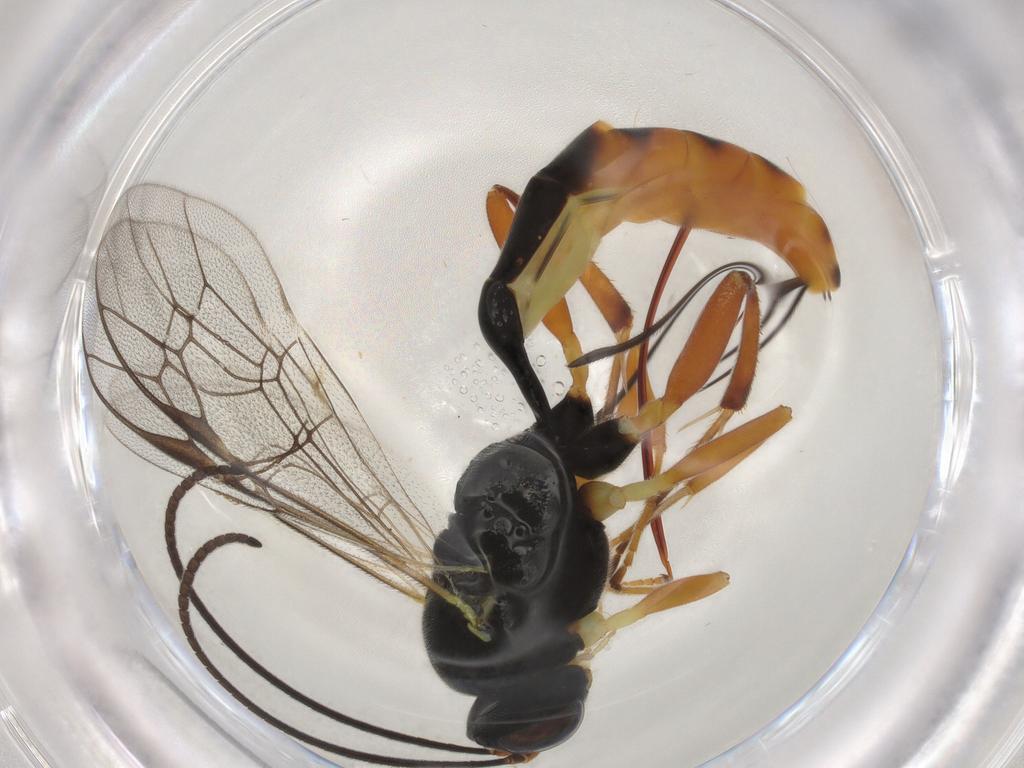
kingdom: Animalia
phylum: Arthropoda
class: Insecta
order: Hymenoptera
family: Ichneumonidae
